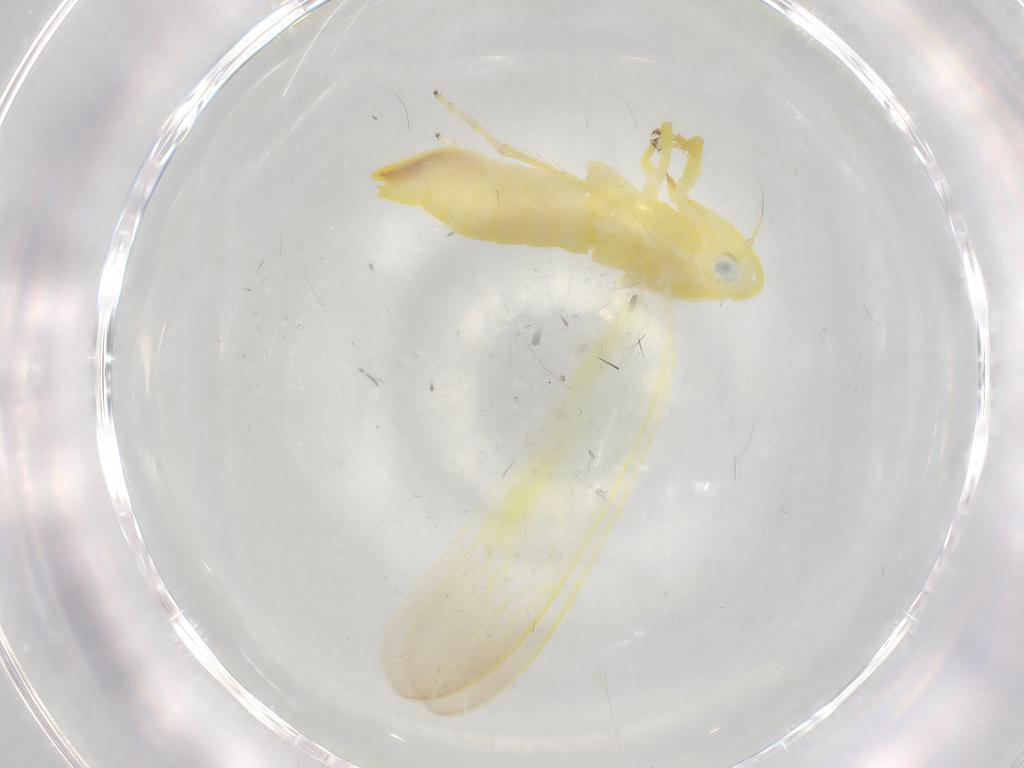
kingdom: Animalia
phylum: Arthropoda
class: Insecta
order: Hemiptera
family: Cicadellidae
